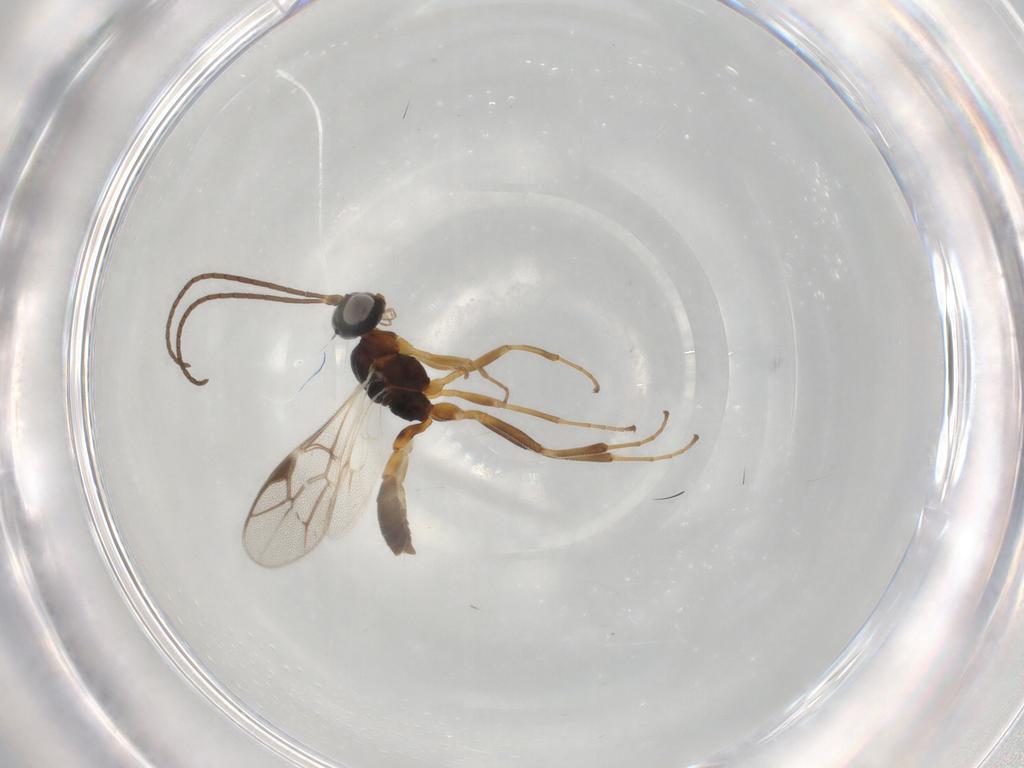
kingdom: Animalia
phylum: Arthropoda
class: Insecta
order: Hymenoptera
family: Ichneumonidae
